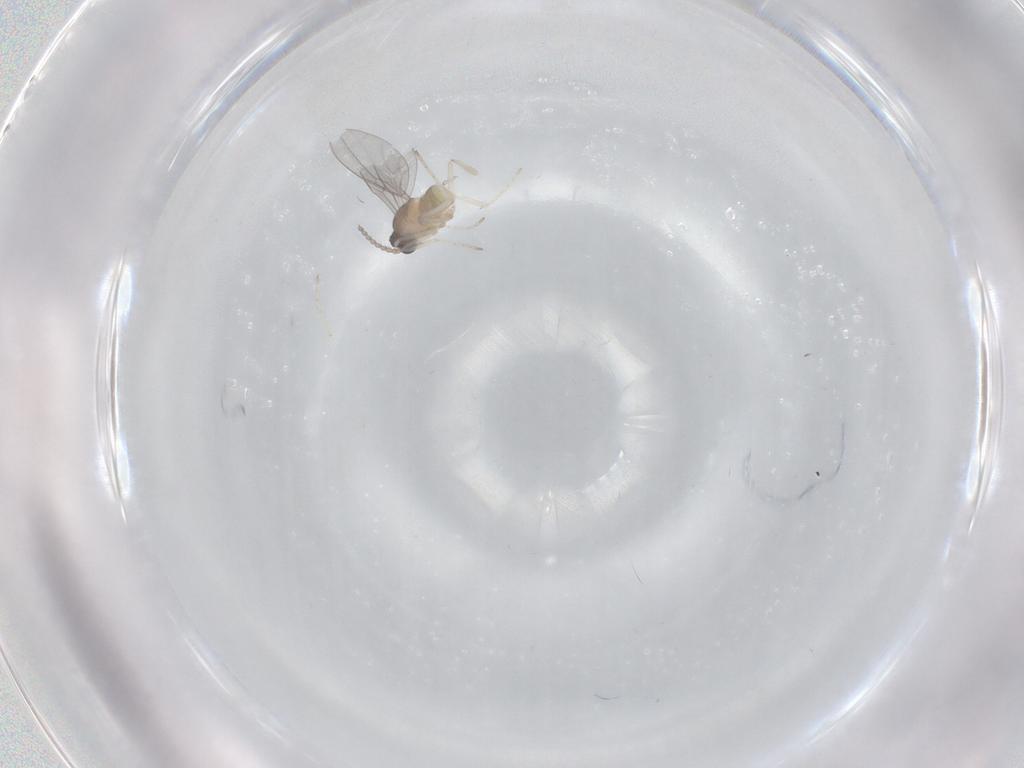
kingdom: Animalia
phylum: Arthropoda
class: Insecta
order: Diptera
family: Cecidomyiidae
